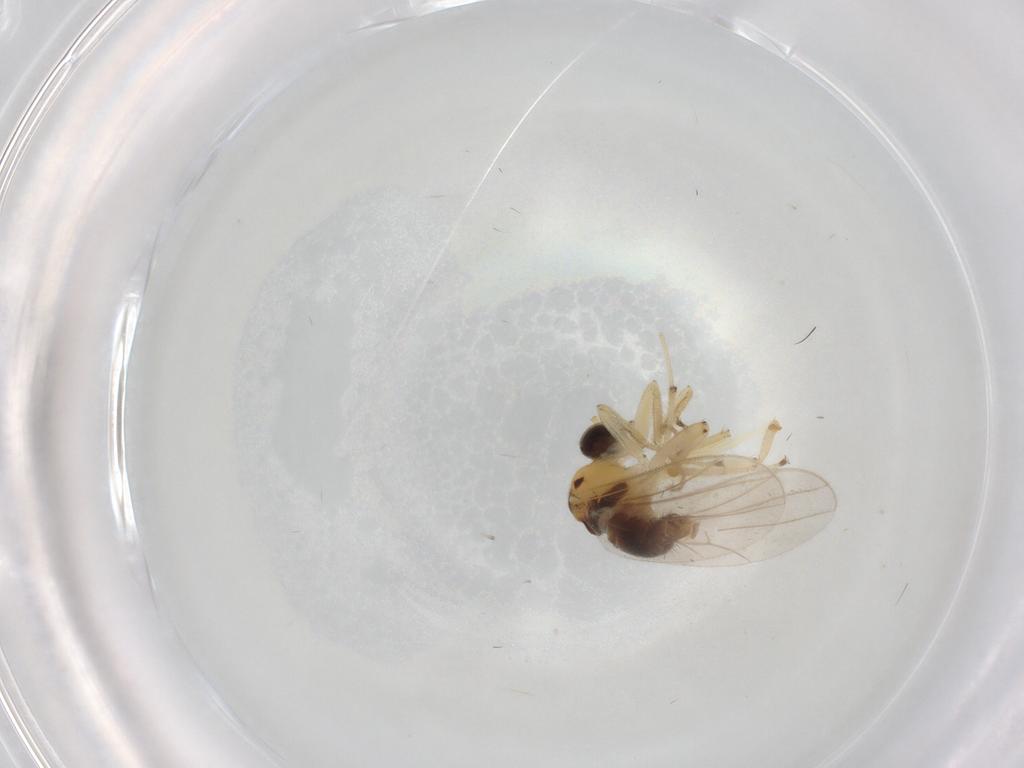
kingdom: Animalia
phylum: Arthropoda
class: Insecta
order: Diptera
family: Hybotidae
